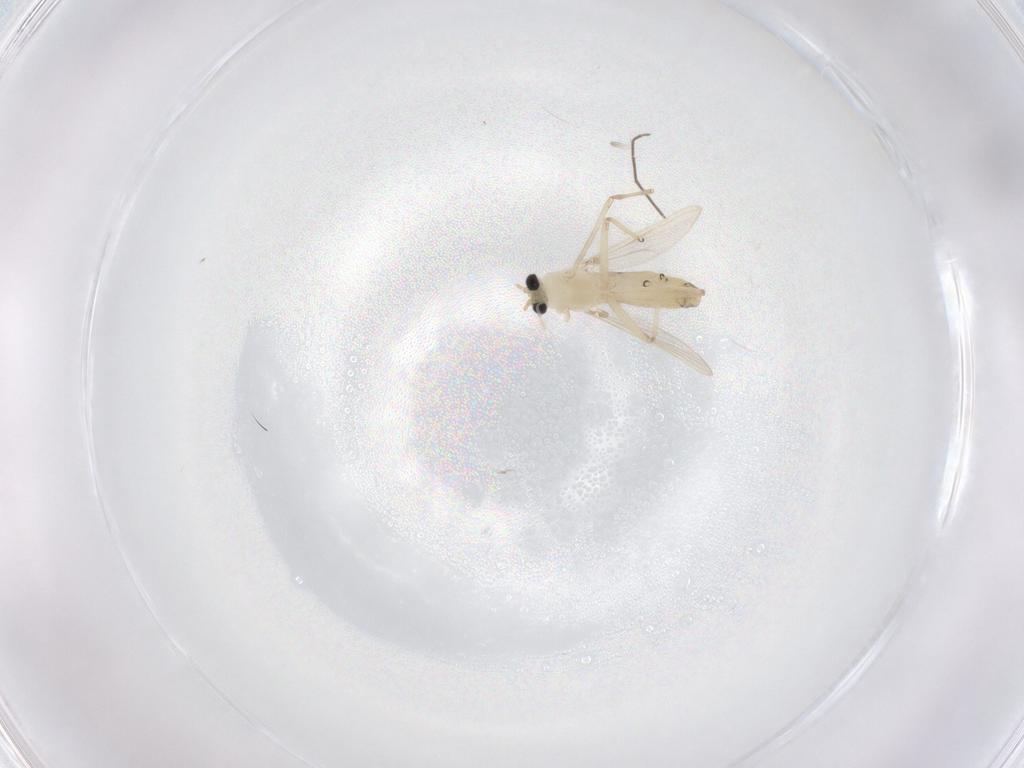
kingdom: Animalia
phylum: Arthropoda
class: Insecta
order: Diptera
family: Chironomidae
